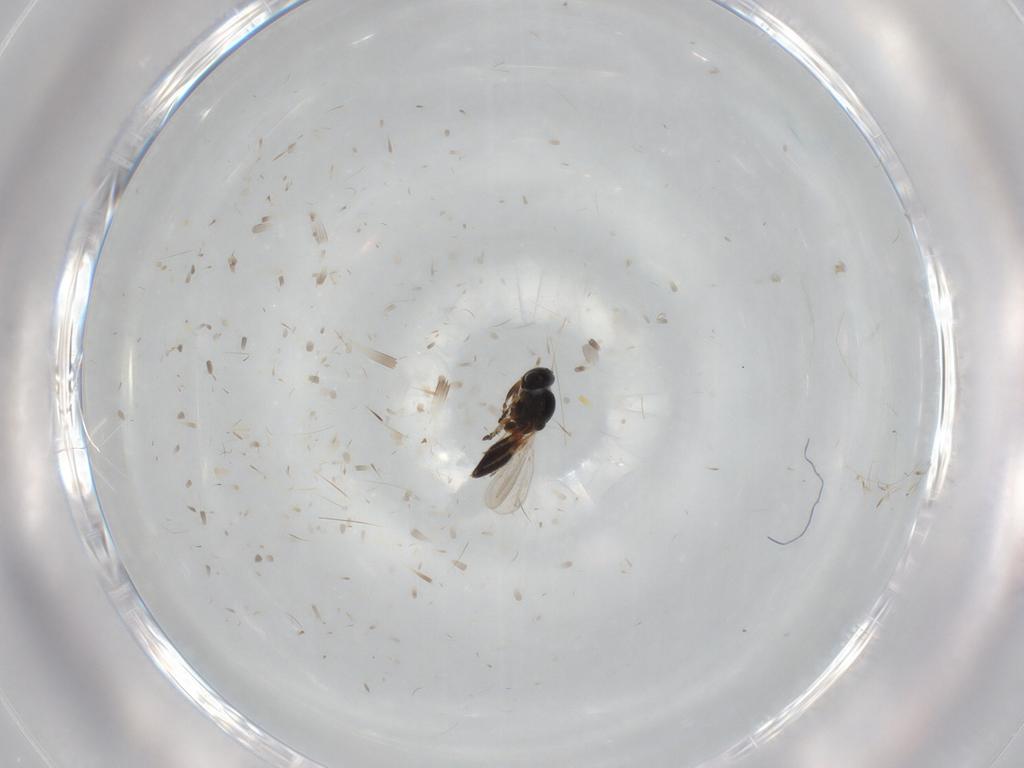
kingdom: Animalia
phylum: Arthropoda
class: Insecta
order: Hymenoptera
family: Platygastridae
